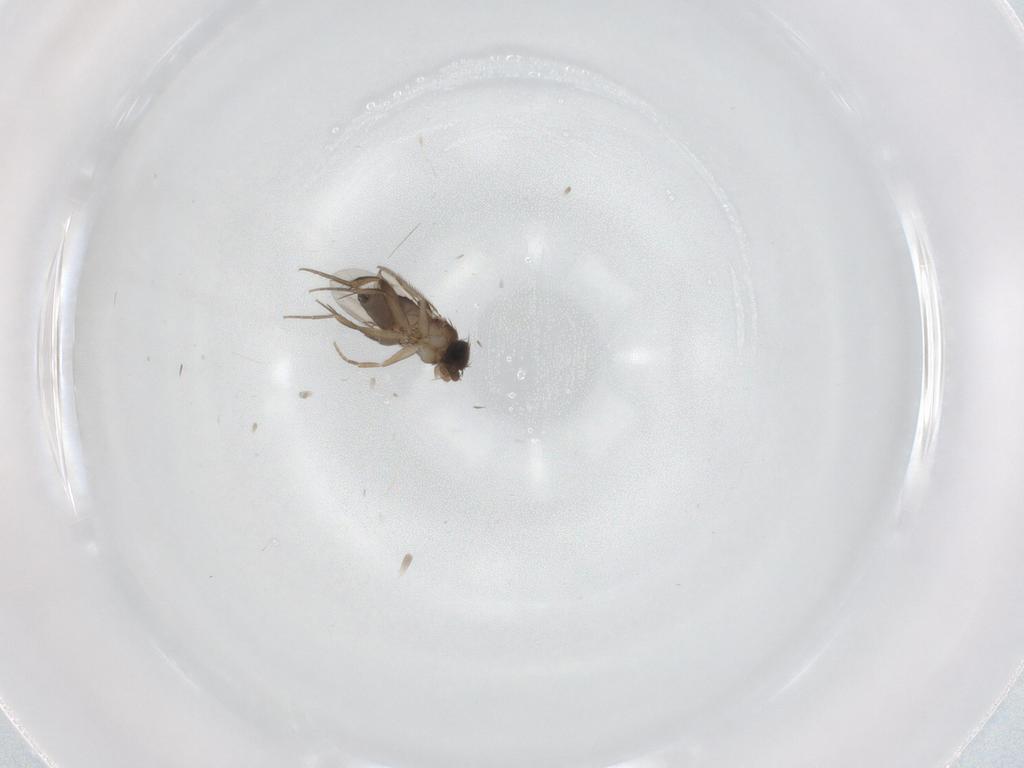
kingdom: Animalia
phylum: Arthropoda
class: Insecta
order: Diptera
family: Phoridae
